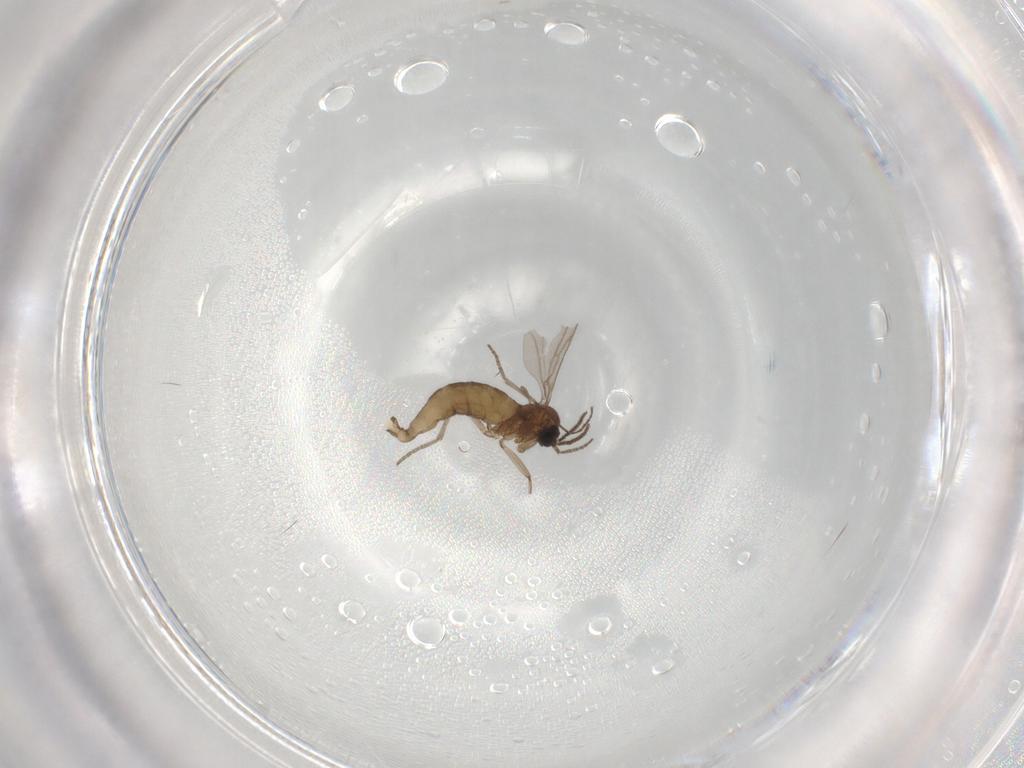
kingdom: Animalia
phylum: Arthropoda
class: Insecta
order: Diptera
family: Sciaridae
